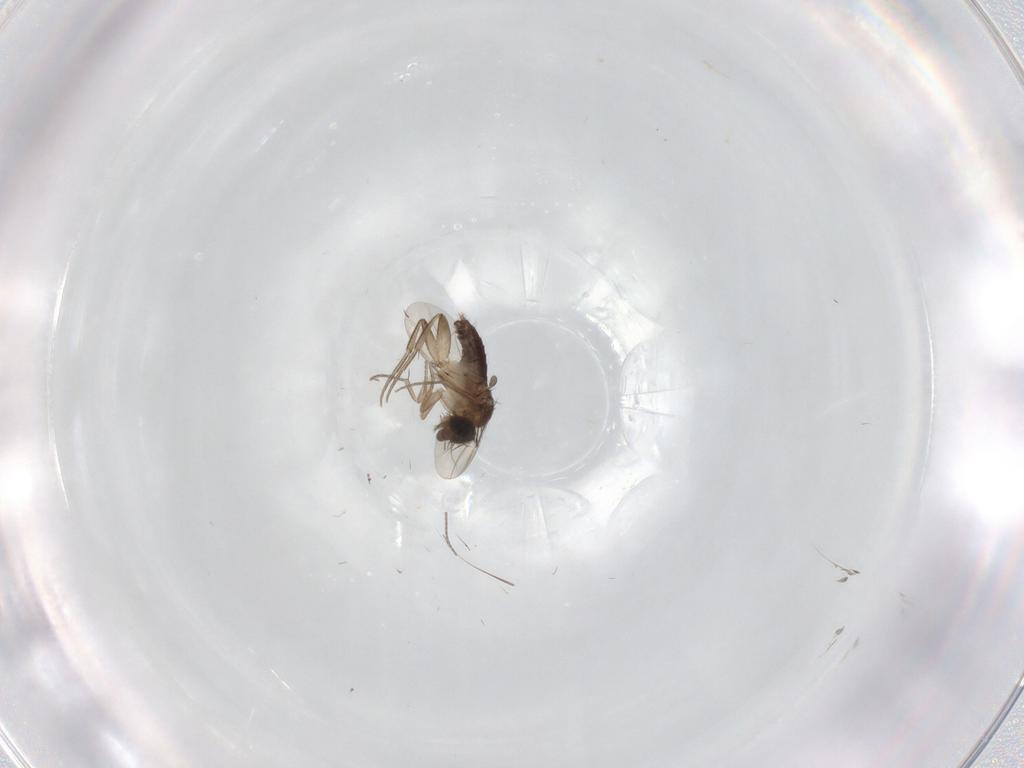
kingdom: Animalia
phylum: Arthropoda
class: Insecta
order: Diptera
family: Phoridae
